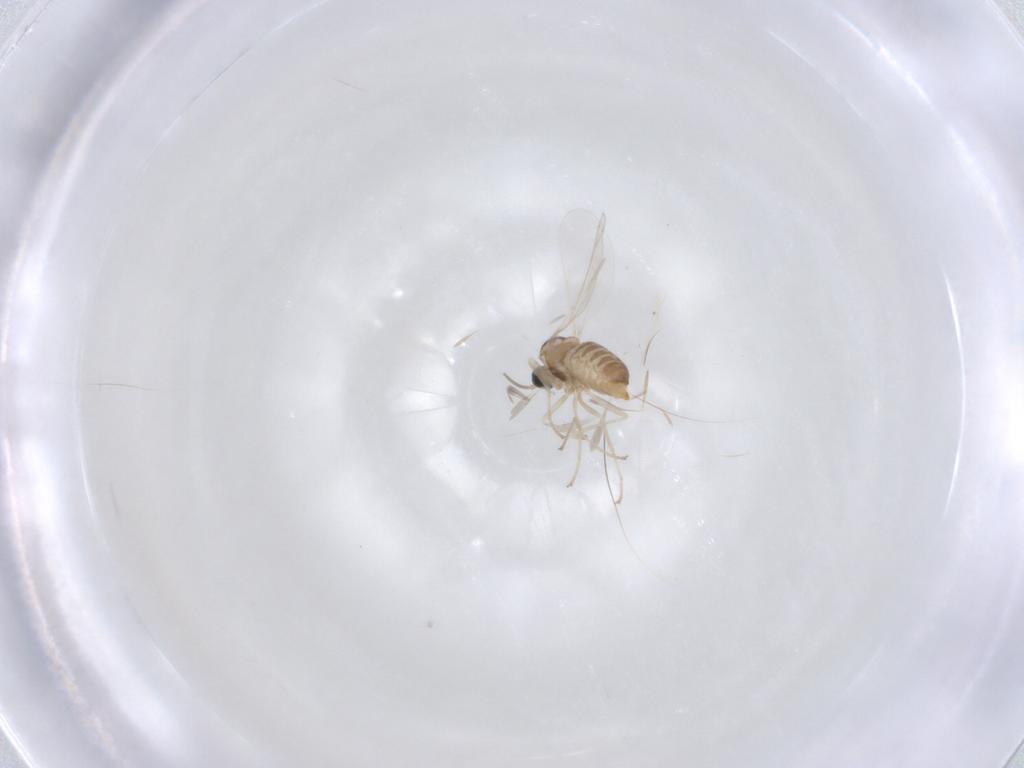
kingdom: Animalia
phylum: Arthropoda
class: Insecta
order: Diptera
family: Cecidomyiidae
